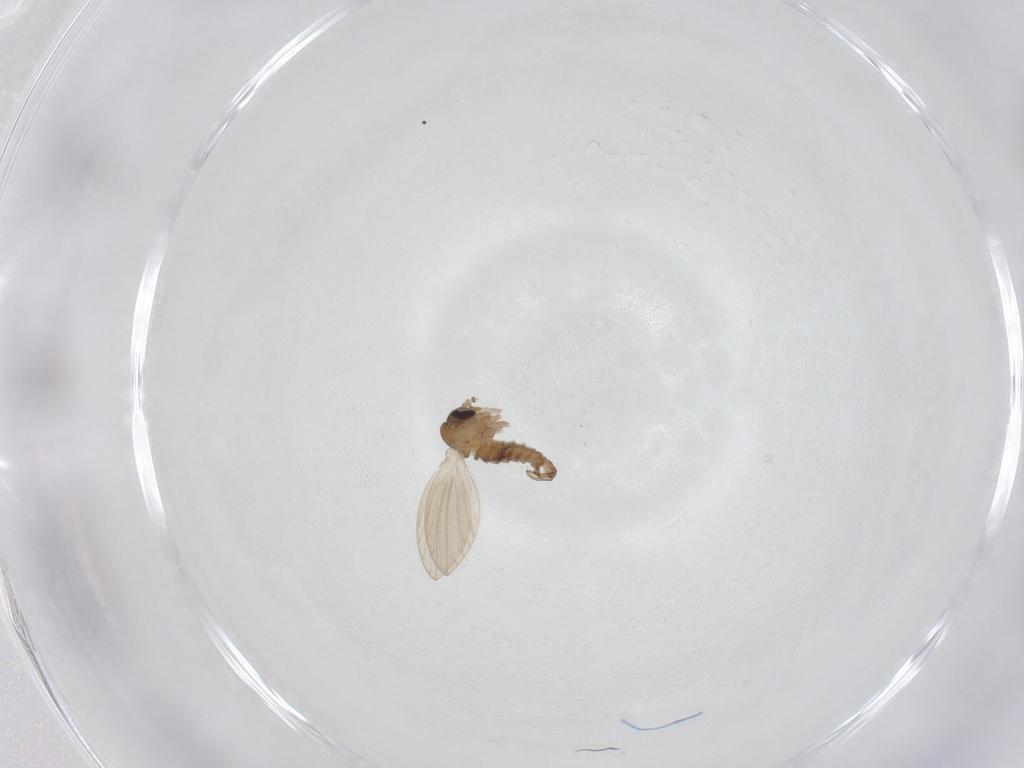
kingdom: Animalia
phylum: Arthropoda
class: Insecta
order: Diptera
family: Psychodidae
